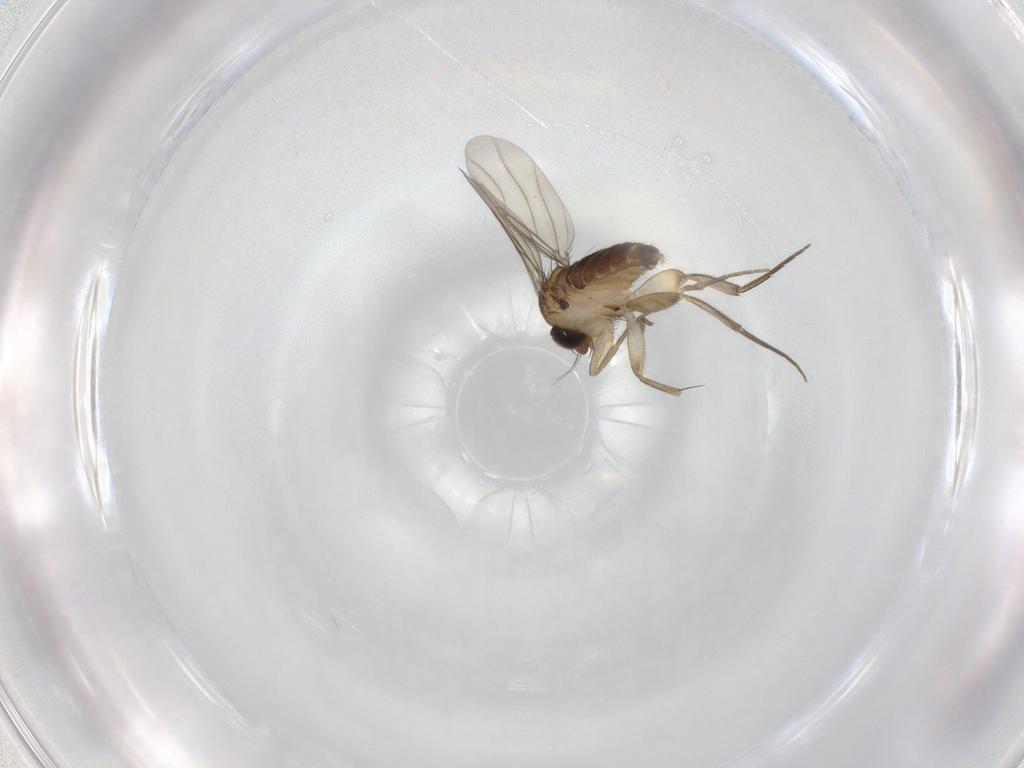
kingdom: Animalia
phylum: Arthropoda
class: Insecta
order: Diptera
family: Phoridae
